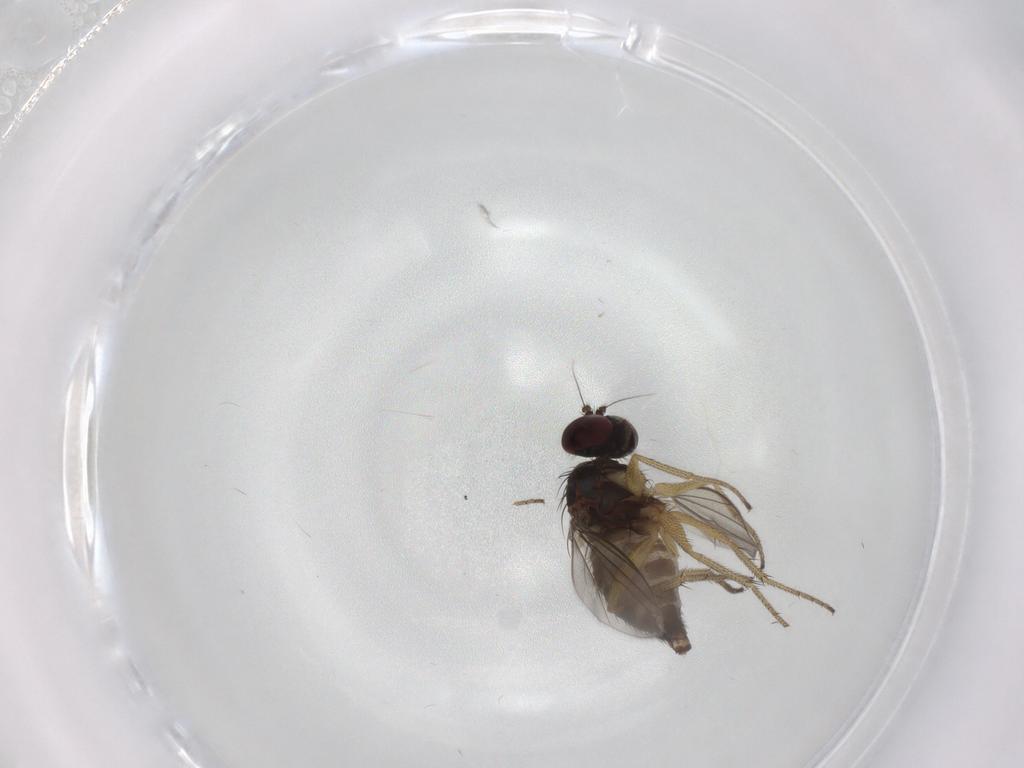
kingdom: Animalia
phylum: Arthropoda
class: Insecta
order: Diptera
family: Dolichopodidae
